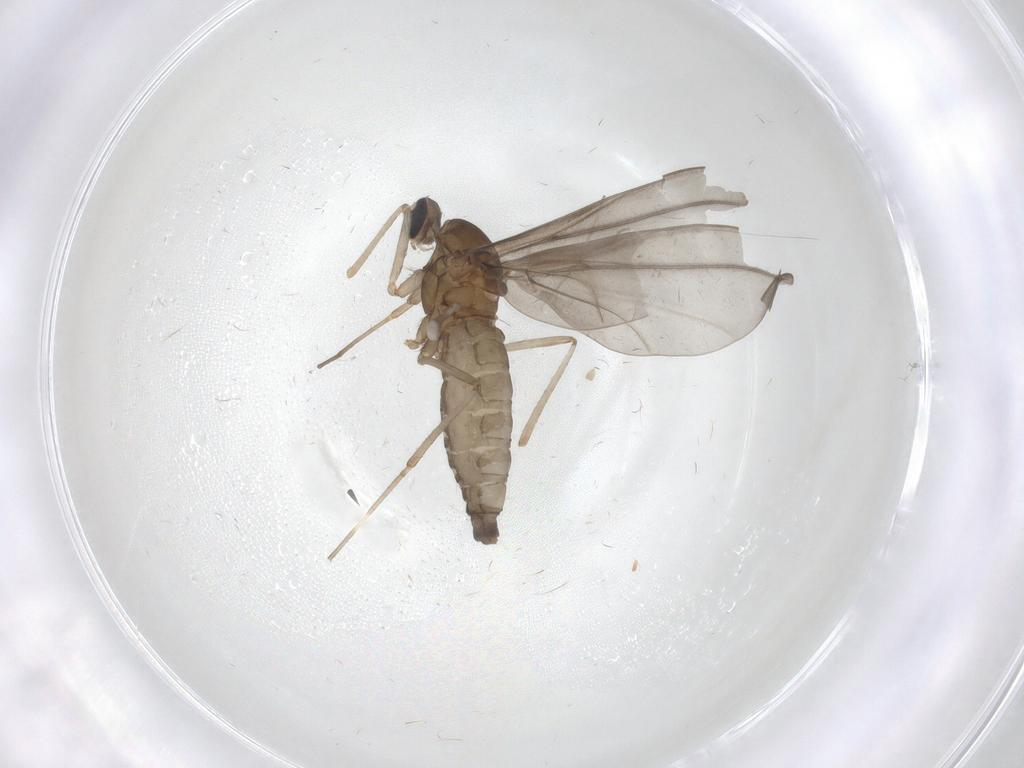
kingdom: Animalia
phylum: Arthropoda
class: Insecta
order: Diptera
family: Cecidomyiidae
